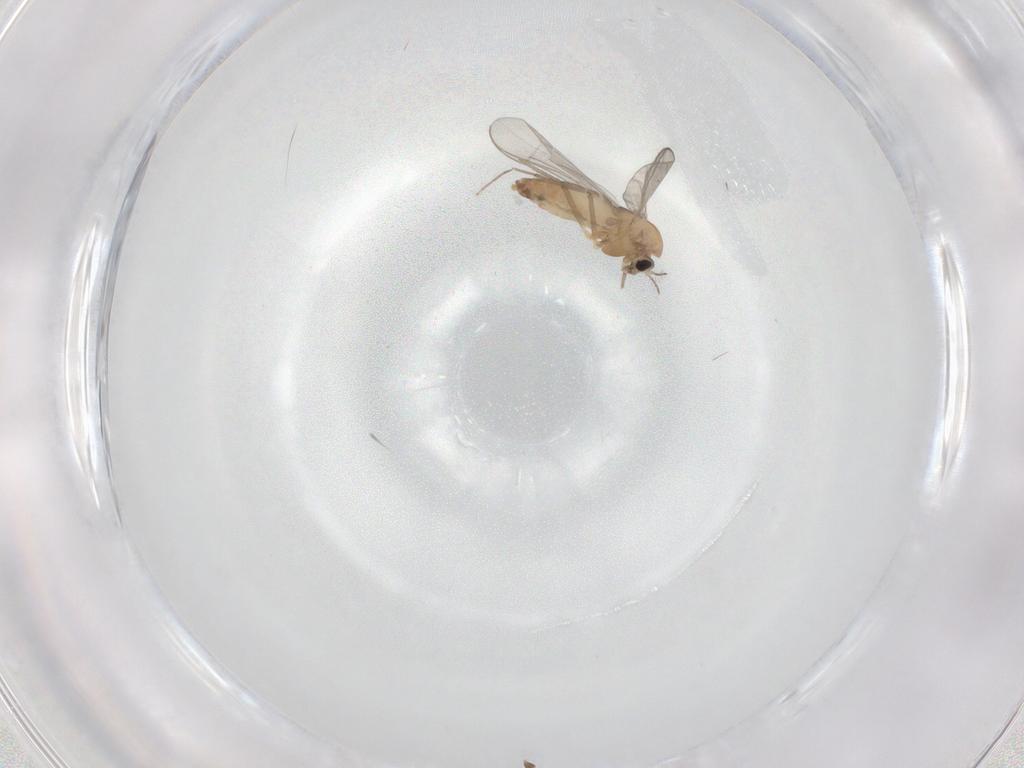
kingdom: Animalia
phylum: Arthropoda
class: Insecta
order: Diptera
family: Chironomidae
